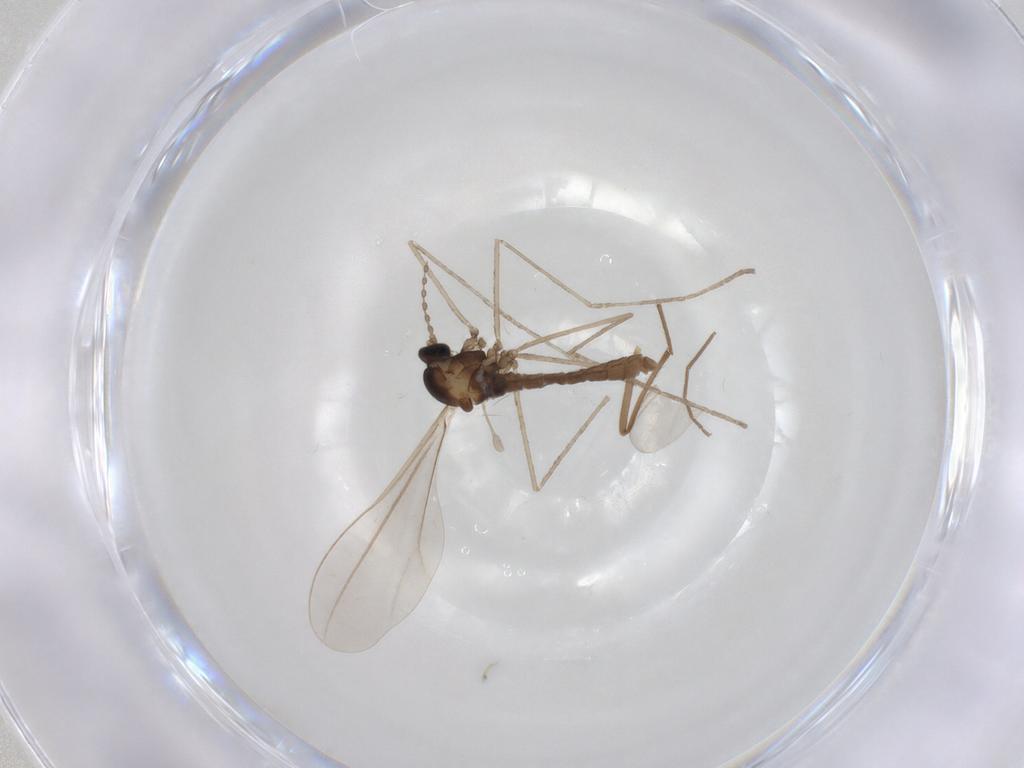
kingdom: Animalia
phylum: Arthropoda
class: Insecta
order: Diptera
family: Cecidomyiidae
